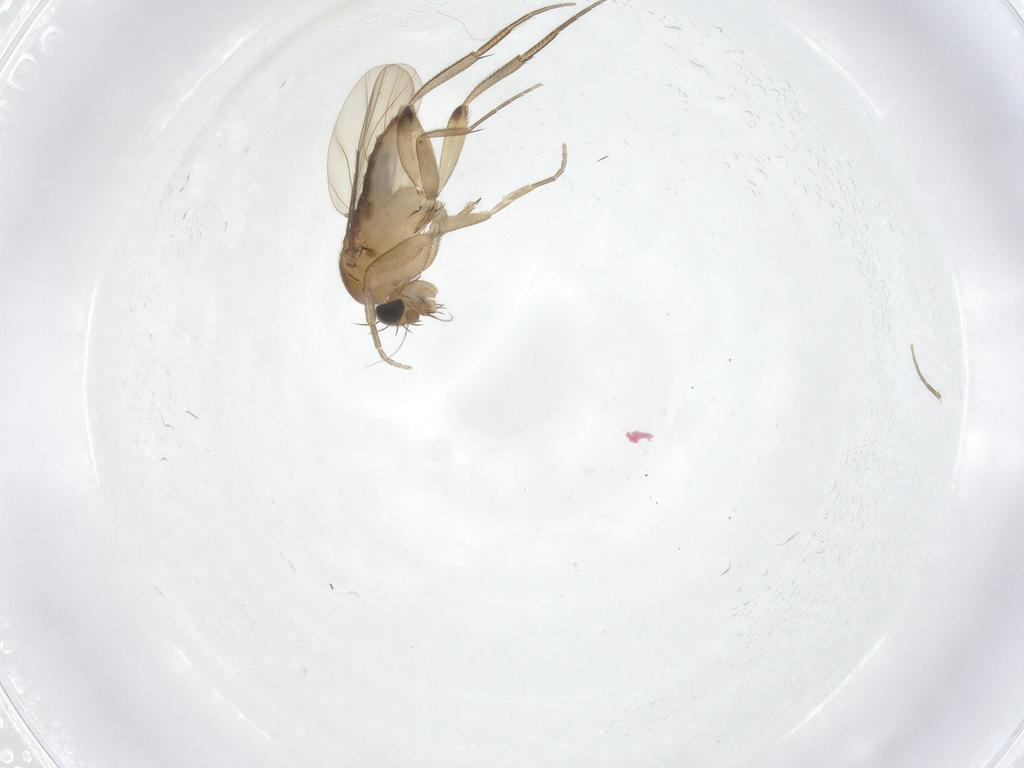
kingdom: Animalia
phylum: Arthropoda
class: Insecta
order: Diptera
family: Phoridae
